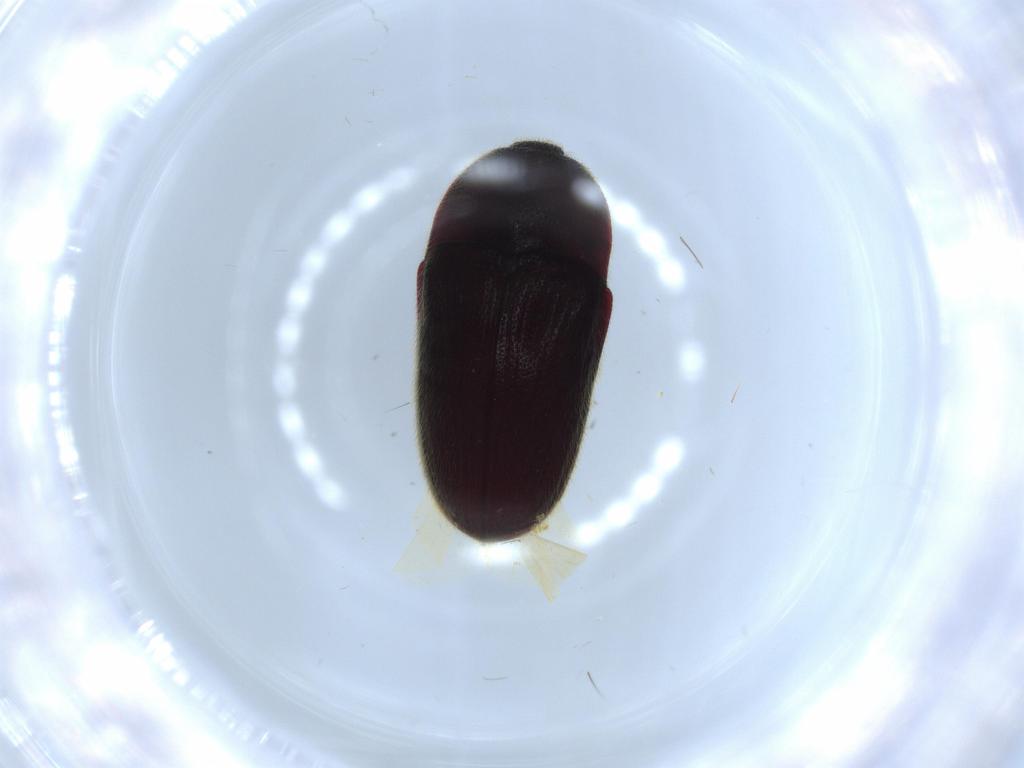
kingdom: Animalia
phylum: Arthropoda
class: Insecta
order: Coleoptera
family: Throscidae
